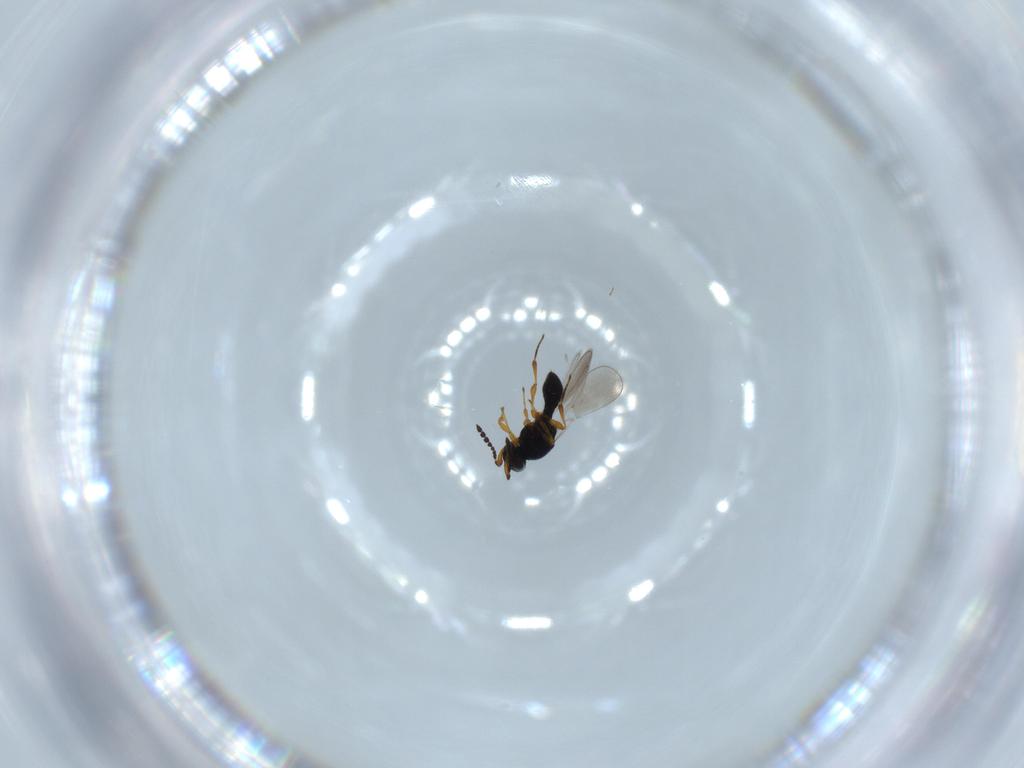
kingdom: Animalia
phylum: Arthropoda
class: Insecta
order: Hymenoptera
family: Platygastridae
